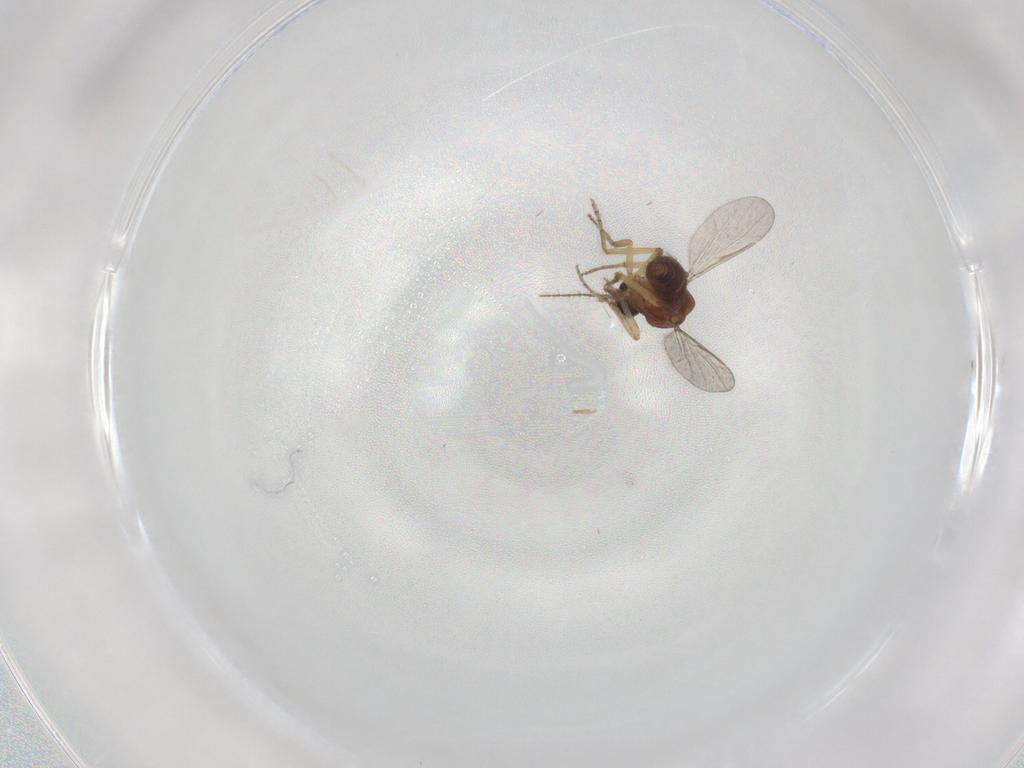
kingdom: Animalia
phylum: Arthropoda
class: Insecta
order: Diptera
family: Ceratopogonidae
